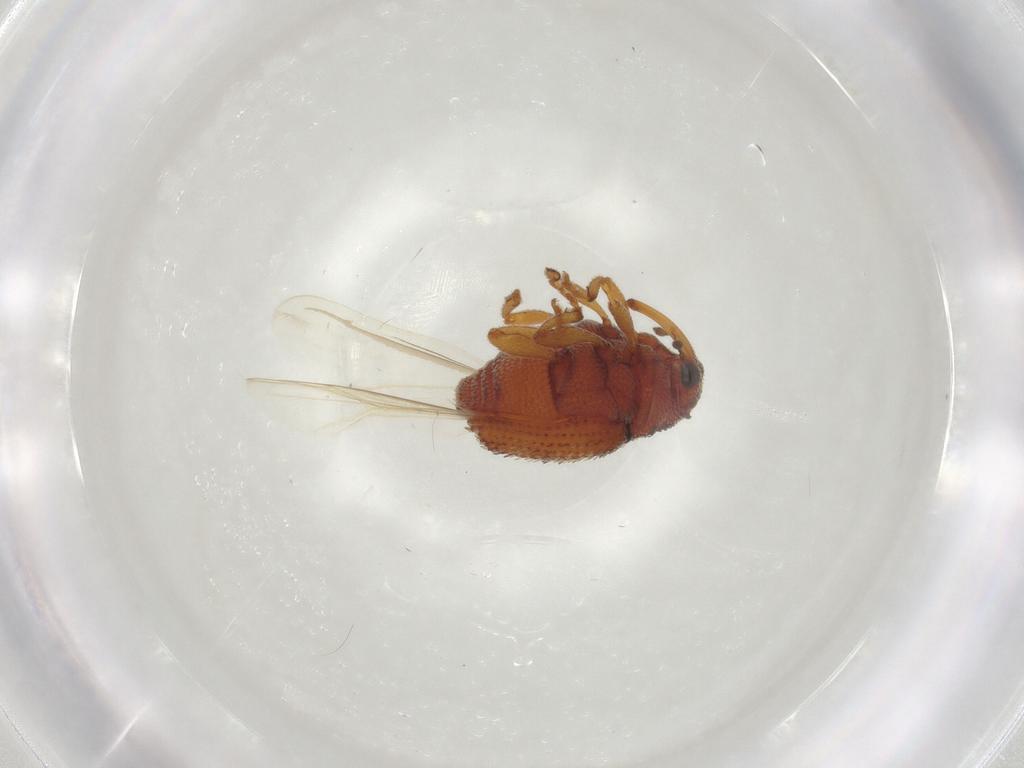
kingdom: Animalia
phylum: Arthropoda
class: Insecta
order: Coleoptera
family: Curculionidae
